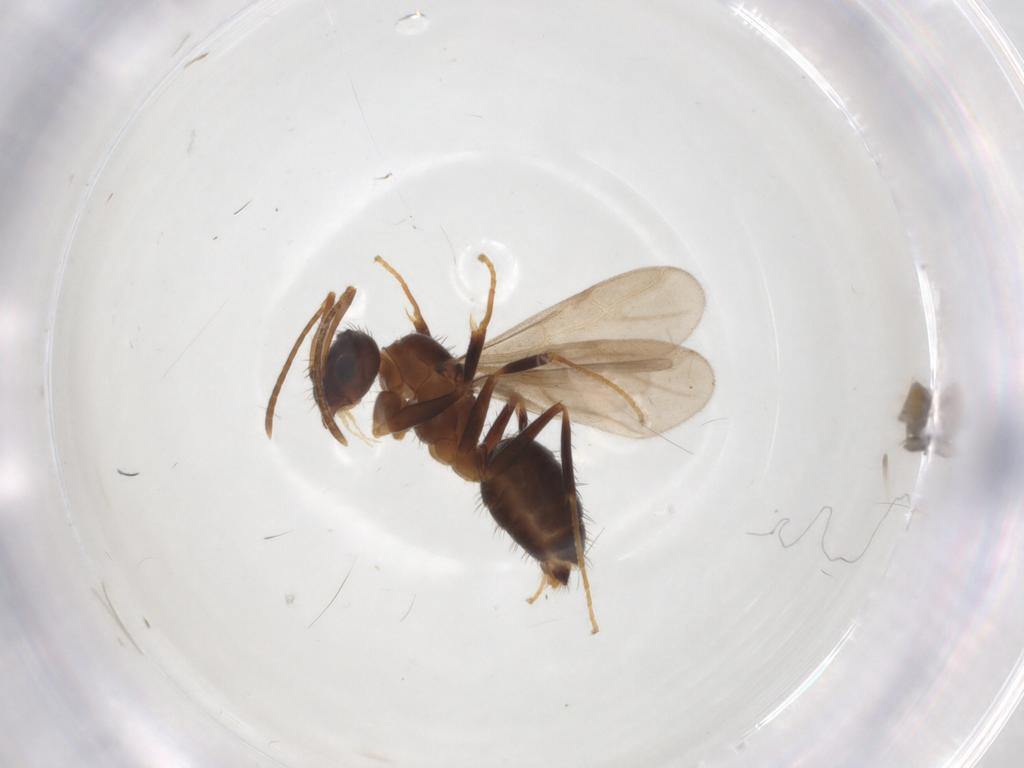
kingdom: Animalia
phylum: Arthropoda
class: Insecta
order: Hymenoptera
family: Formicidae
